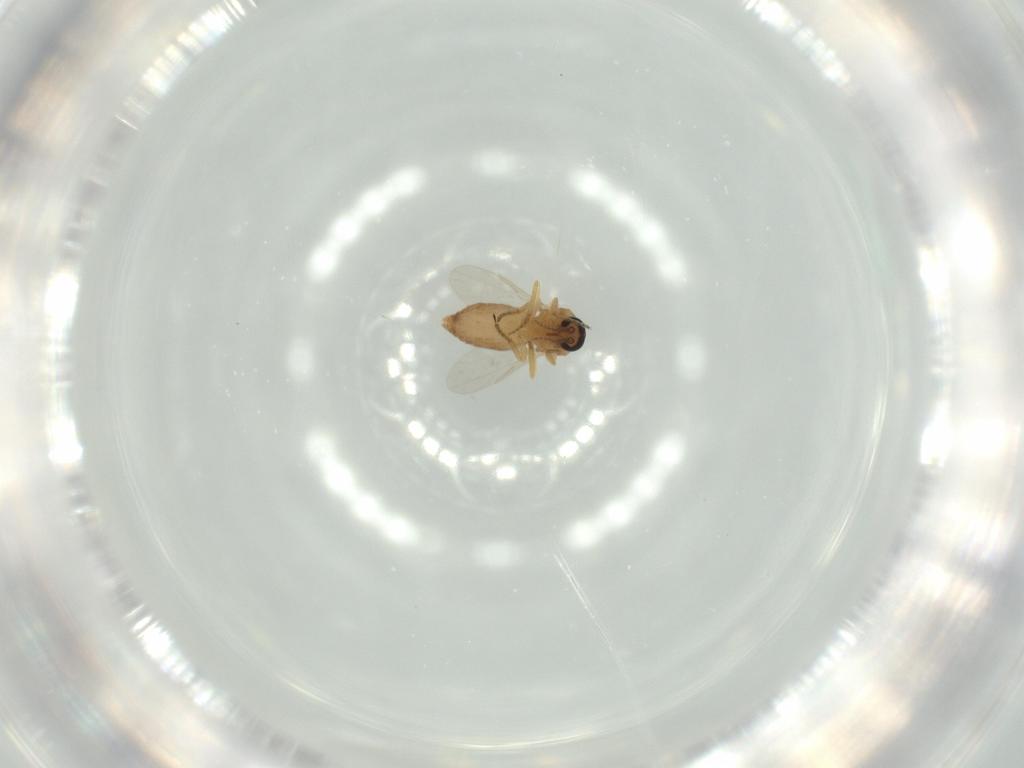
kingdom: Animalia
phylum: Arthropoda
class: Insecta
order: Diptera
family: Ceratopogonidae
